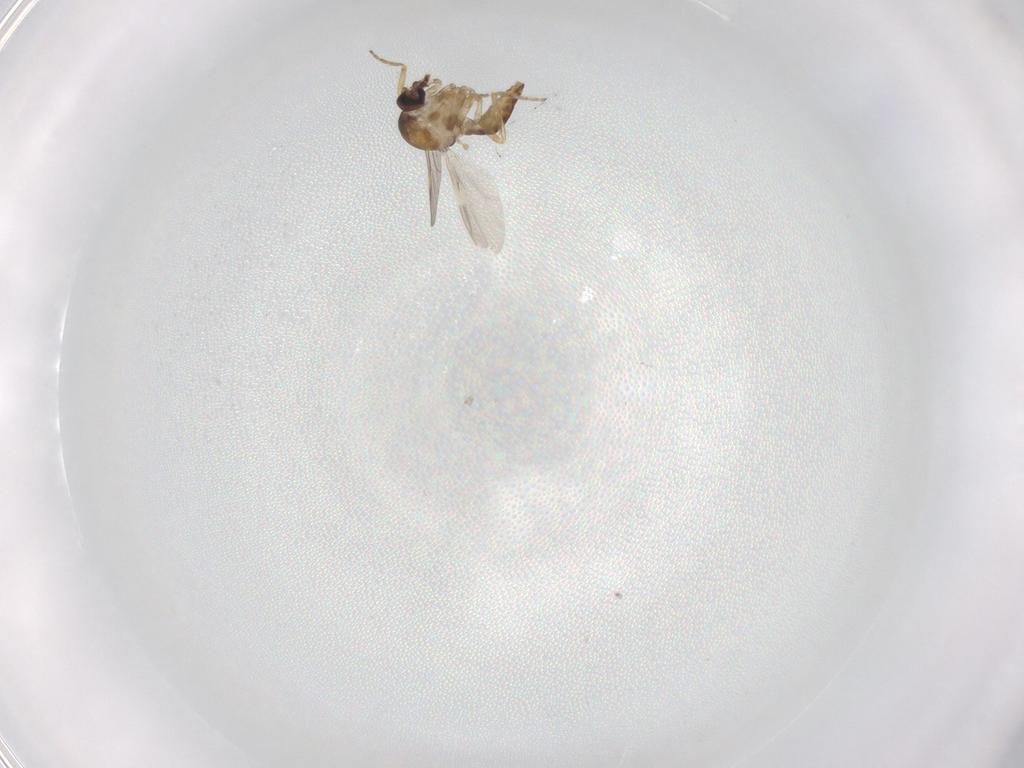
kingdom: Animalia
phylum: Arthropoda
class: Insecta
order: Diptera
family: Ceratopogonidae
